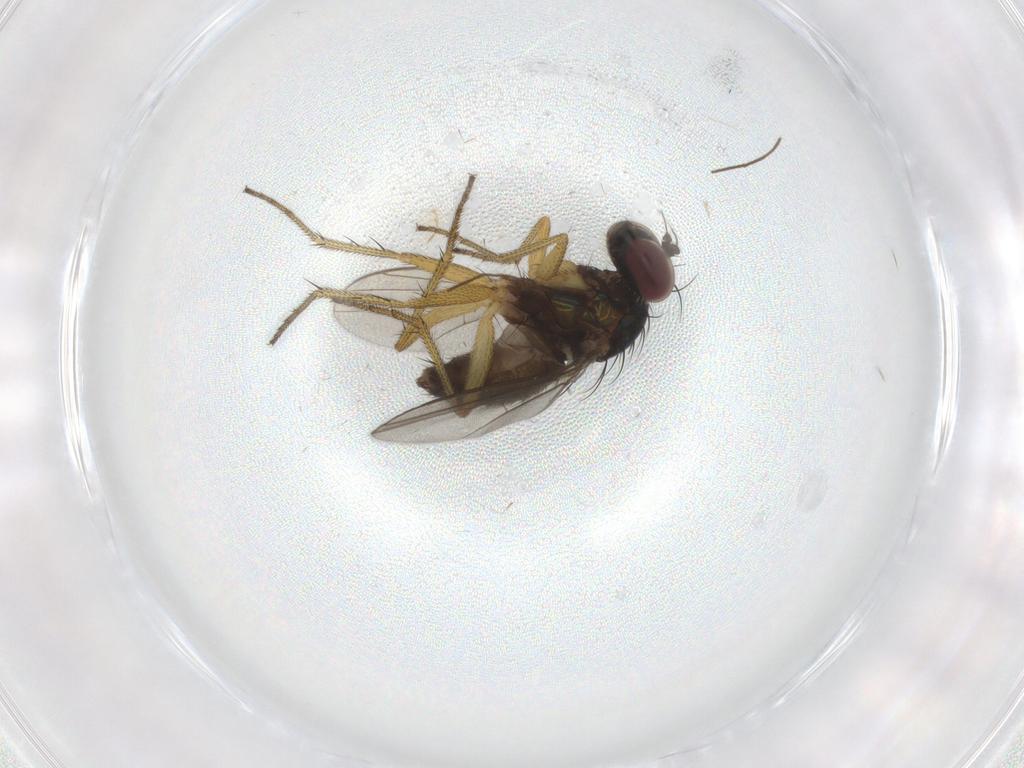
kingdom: Animalia
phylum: Arthropoda
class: Insecta
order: Diptera
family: Chironomidae
